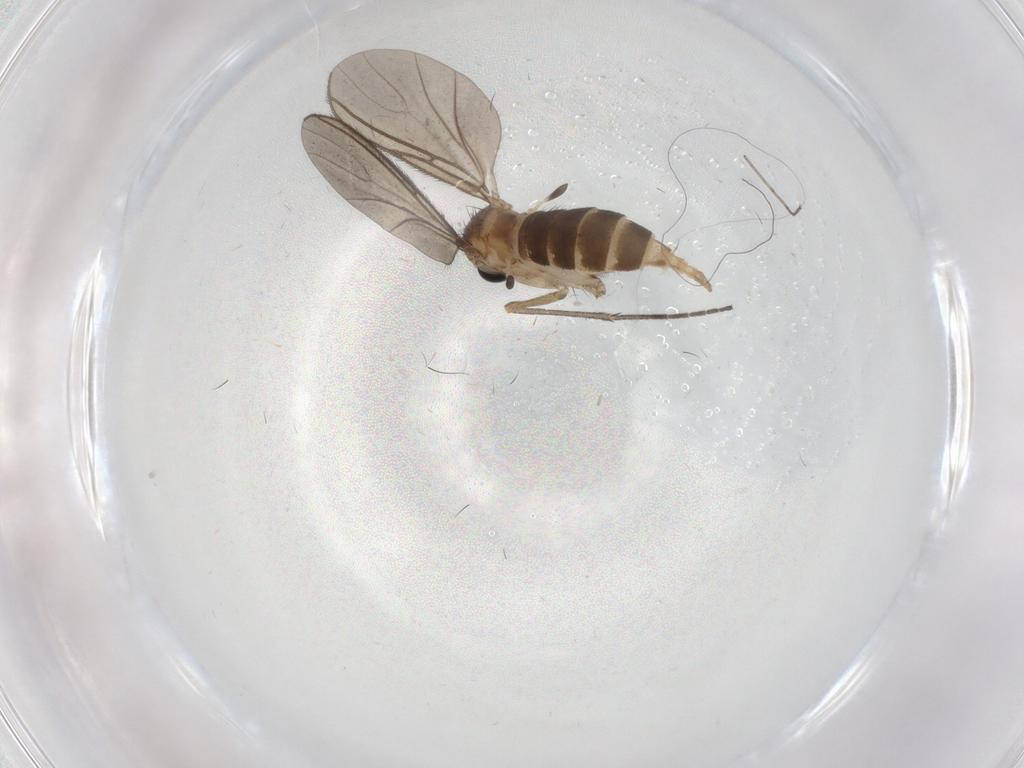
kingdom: Animalia
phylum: Arthropoda
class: Insecta
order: Diptera
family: Sciaridae
